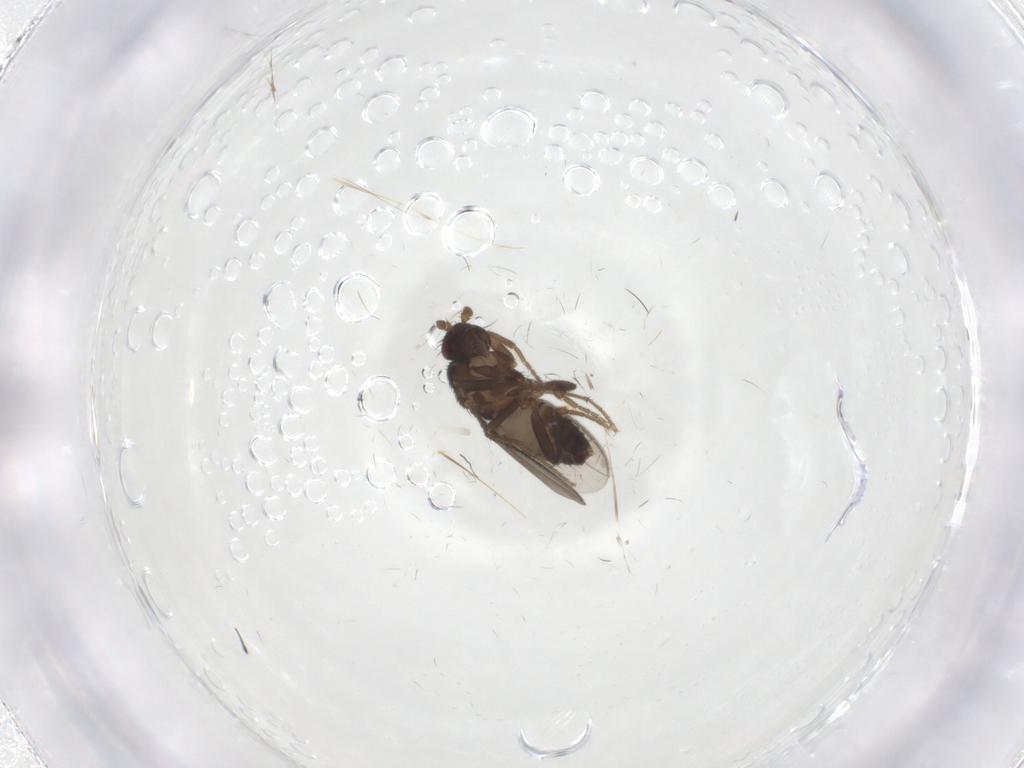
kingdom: Animalia
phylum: Arthropoda
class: Insecta
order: Diptera
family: Sphaeroceridae
